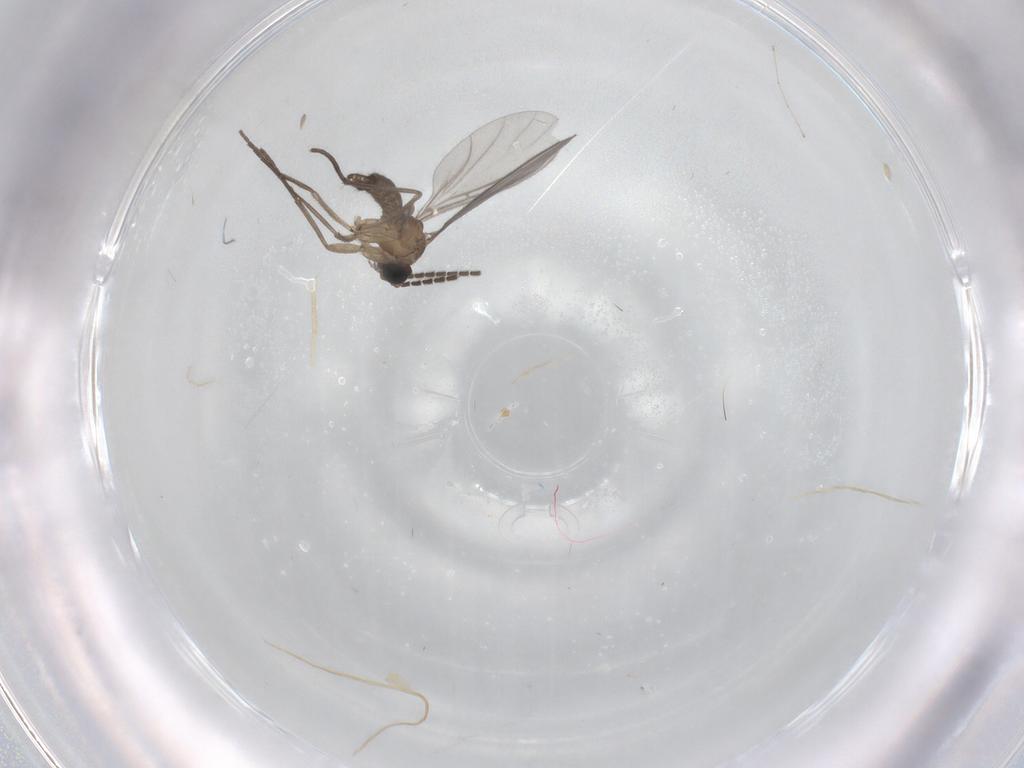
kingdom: Animalia
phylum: Arthropoda
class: Insecta
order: Diptera
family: Sciaridae
